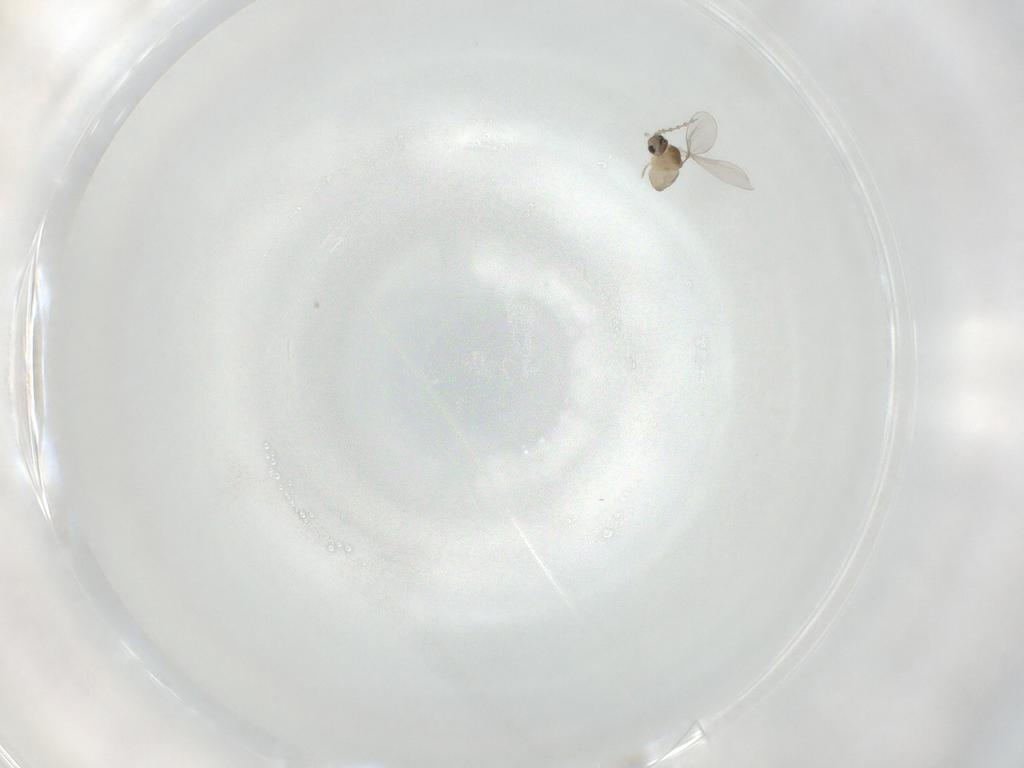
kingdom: Animalia
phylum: Arthropoda
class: Insecta
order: Diptera
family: Cecidomyiidae
